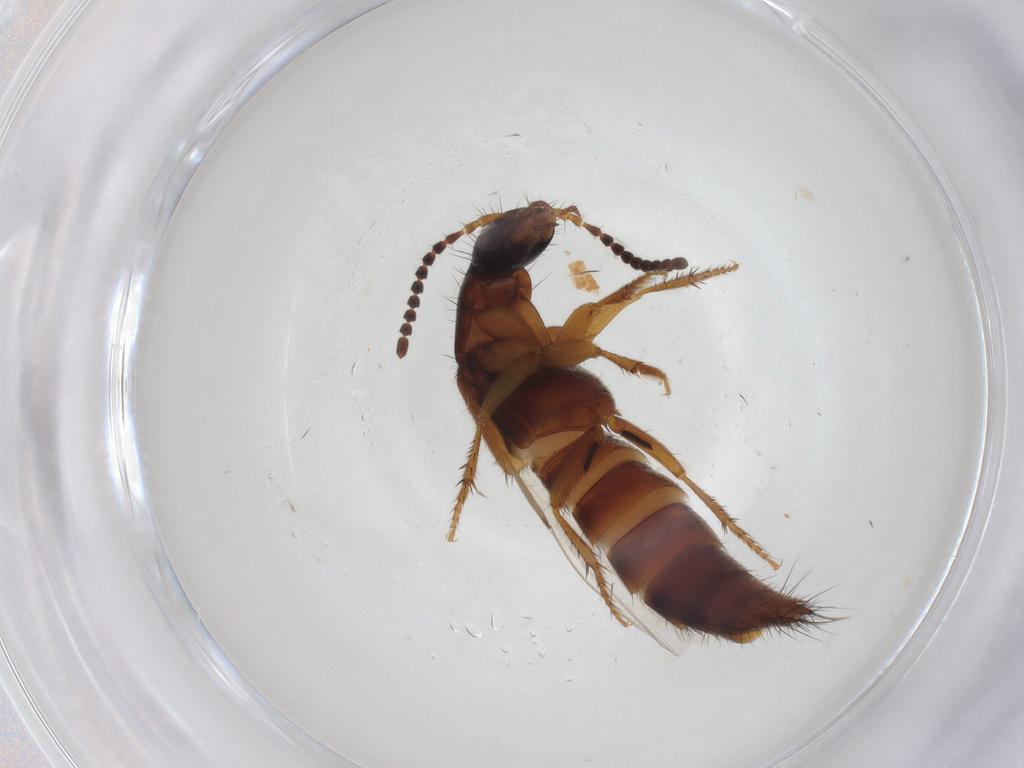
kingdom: Animalia
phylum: Arthropoda
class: Insecta
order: Coleoptera
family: Staphylinidae
